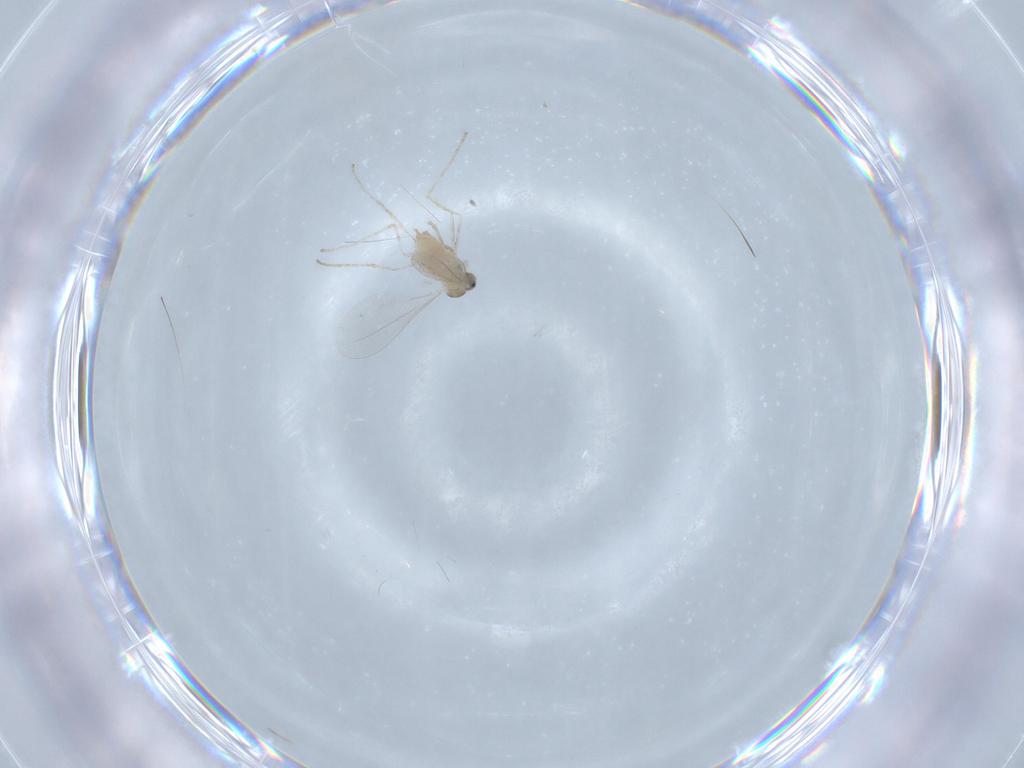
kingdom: Animalia
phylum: Arthropoda
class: Insecta
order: Diptera
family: Cecidomyiidae
